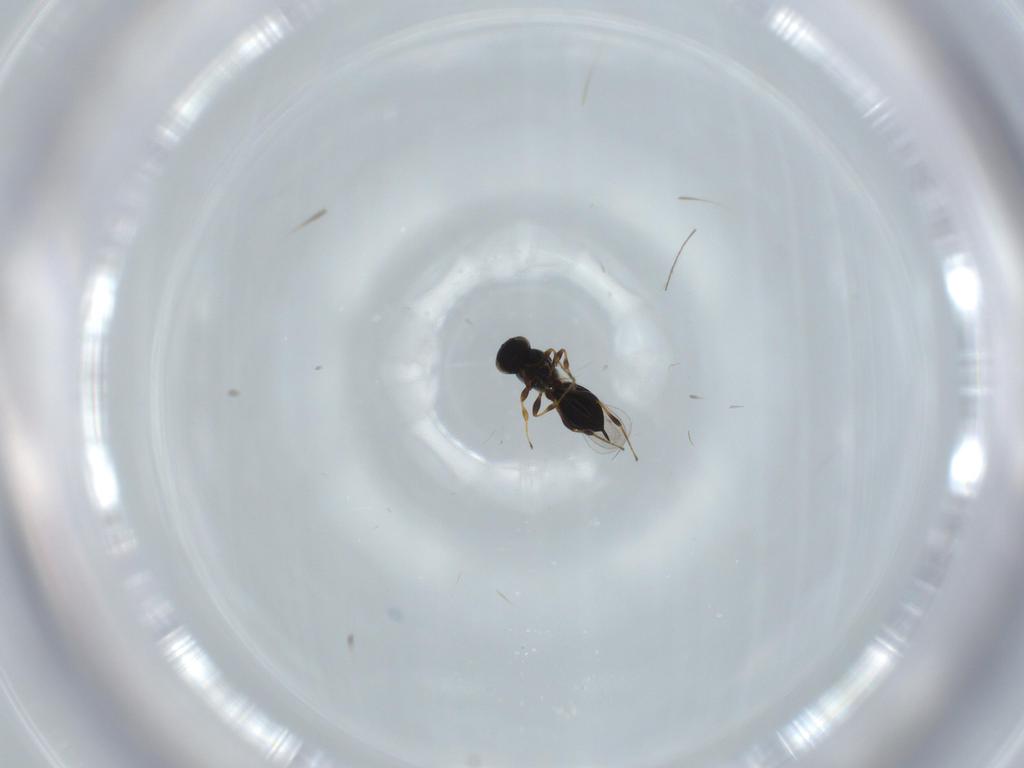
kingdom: Animalia
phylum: Arthropoda
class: Insecta
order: Hymenoptera
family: Platygastridae
